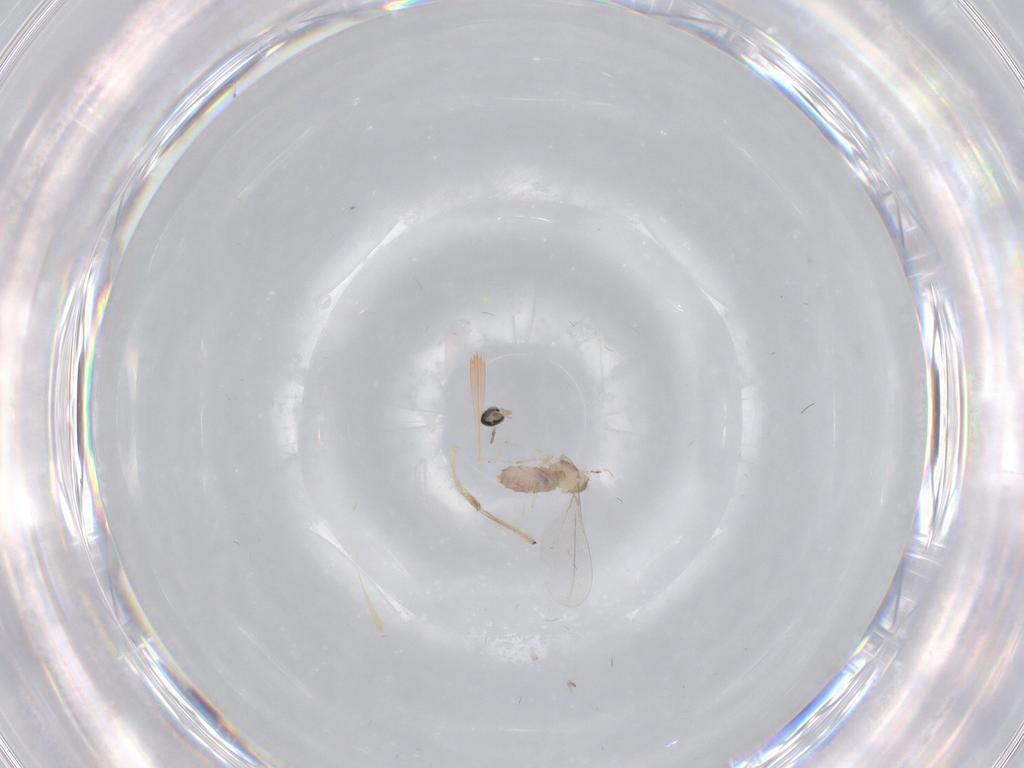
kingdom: Animalia
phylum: Arthropoda
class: Insecta
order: Diptera
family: Cecidomyiidae
